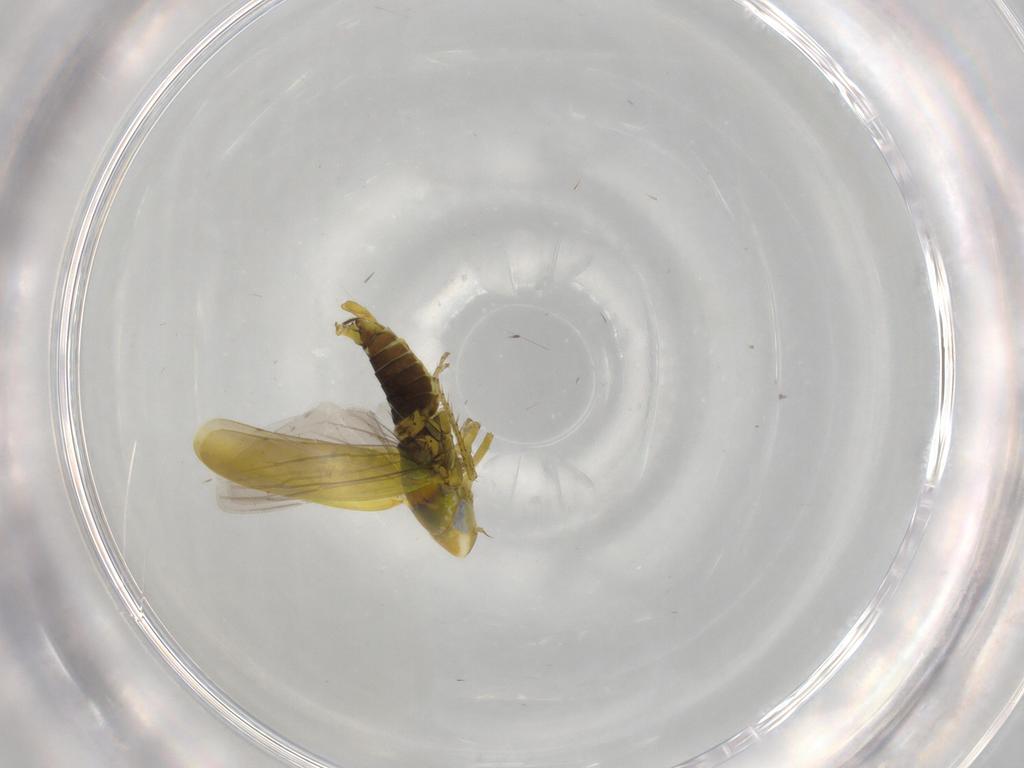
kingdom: Animalia
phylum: Arthropoda
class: Insecta
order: Hemiptera
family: Cicadellidae
